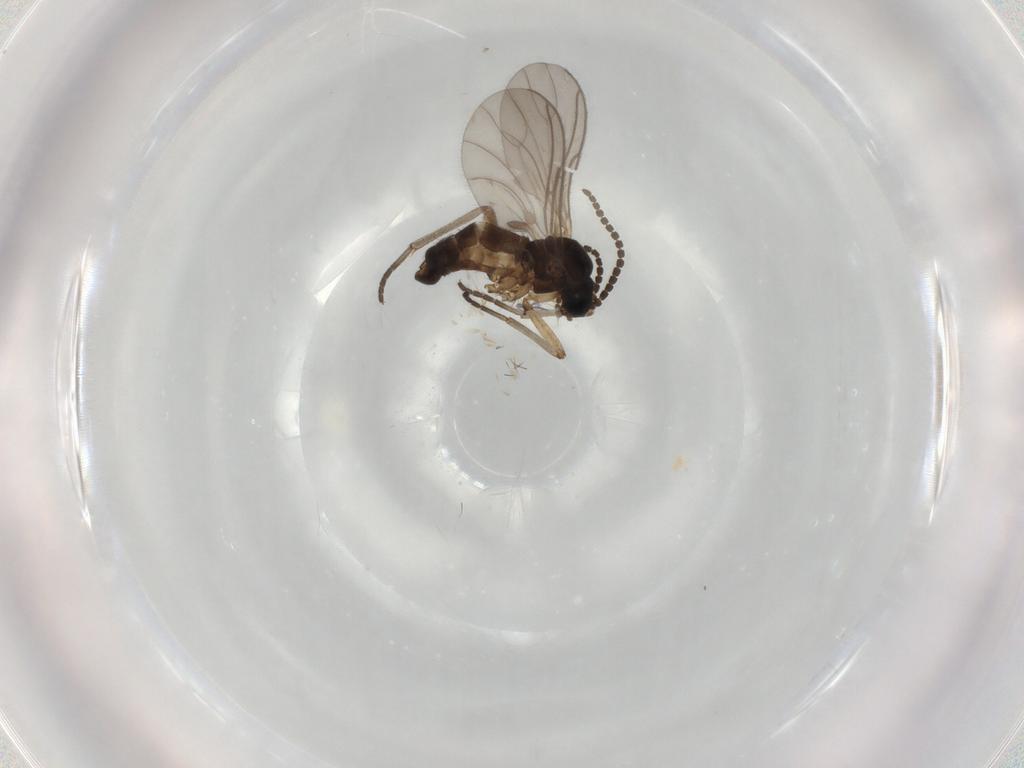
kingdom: Animalia
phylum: Arthropoda
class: Insecta
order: Diptera
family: Sciaridae
